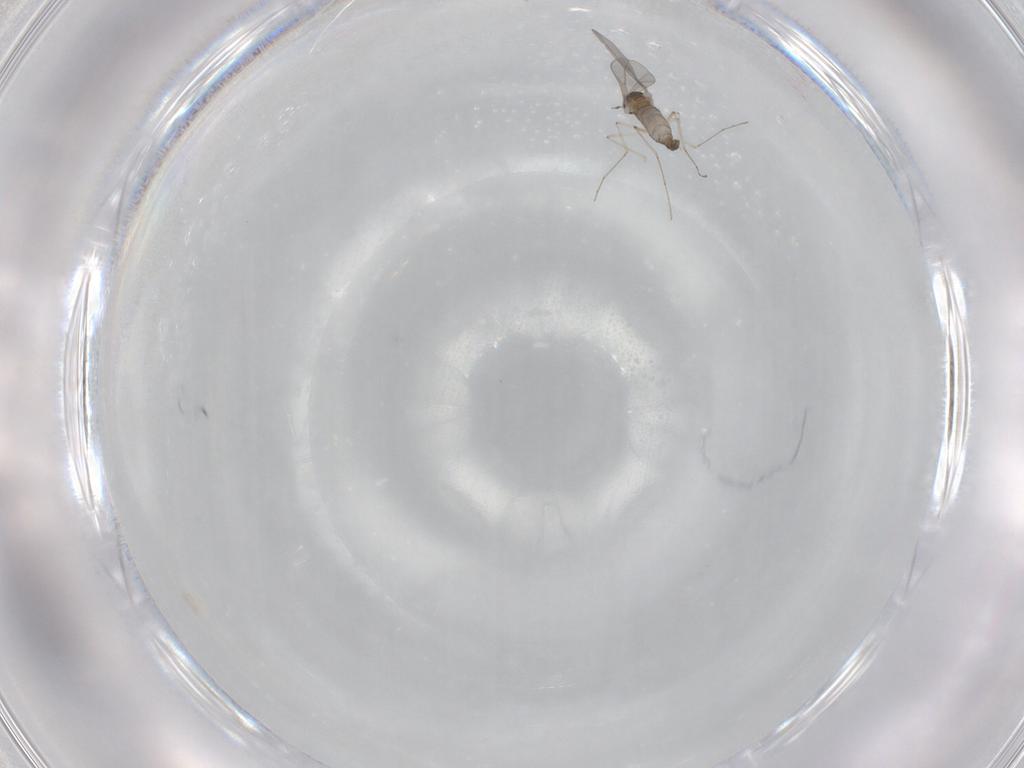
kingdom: Animalia
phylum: Arthropoda
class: Insecta
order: Diptera
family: Cecidomyiidae
